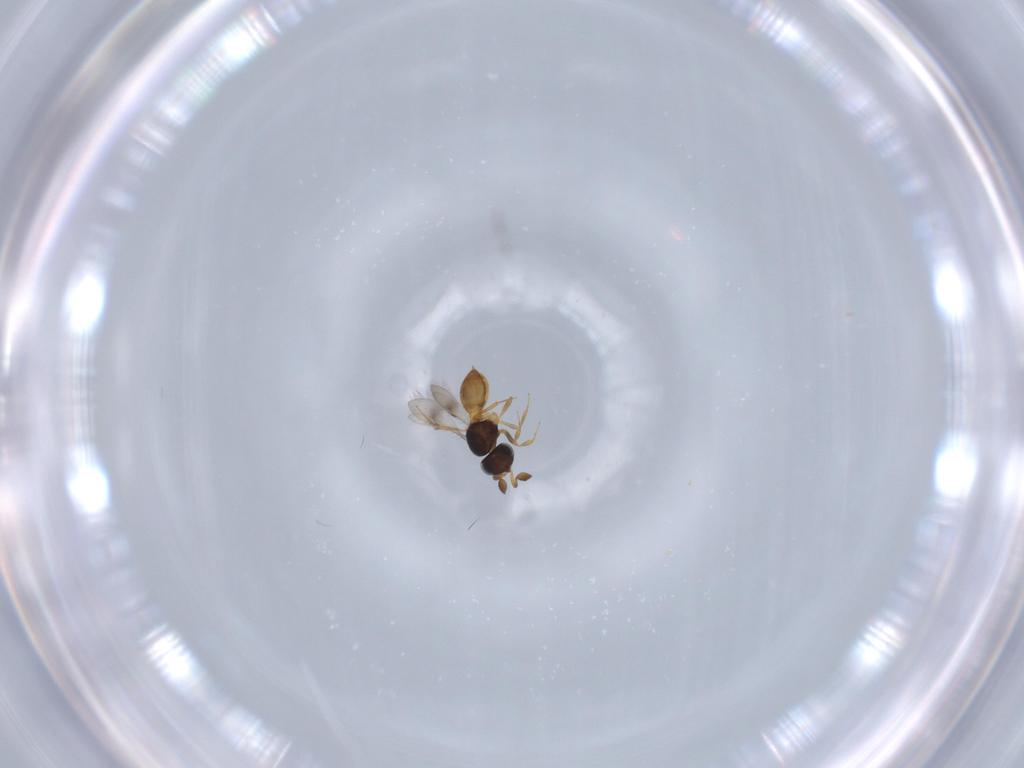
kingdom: Animalia
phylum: Arthropoda
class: Insecta
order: Hymenoptera
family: Scelionidae
